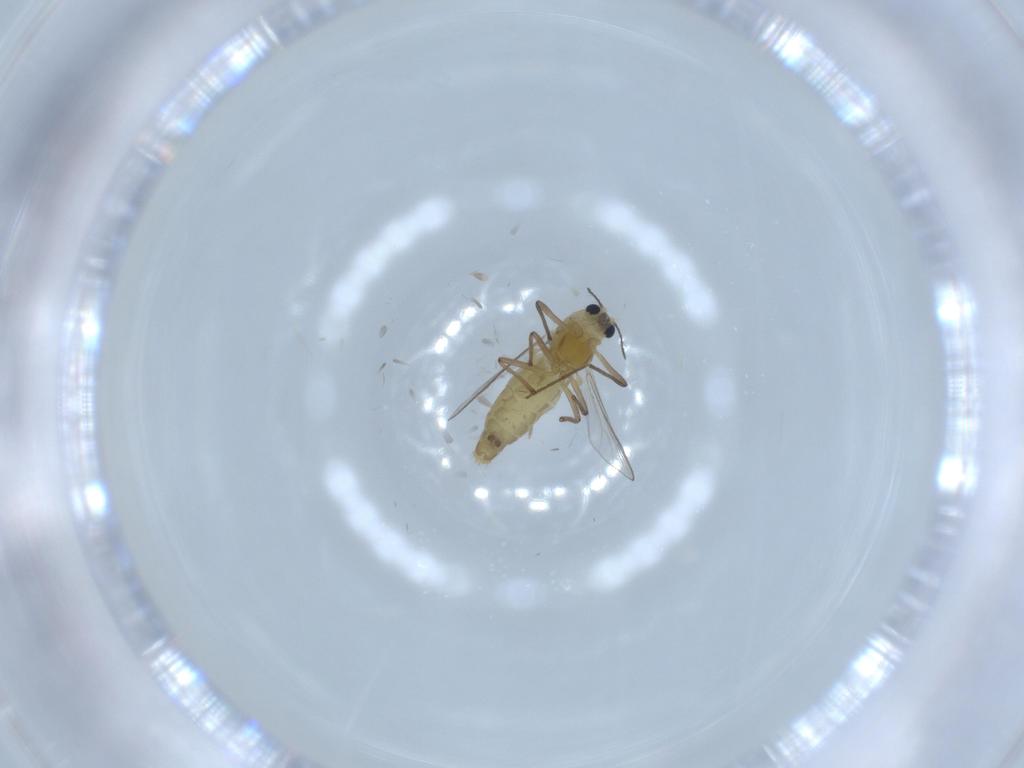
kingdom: Animalia
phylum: Arthropoda
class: Insecta
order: Diptera
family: Chironomidae
